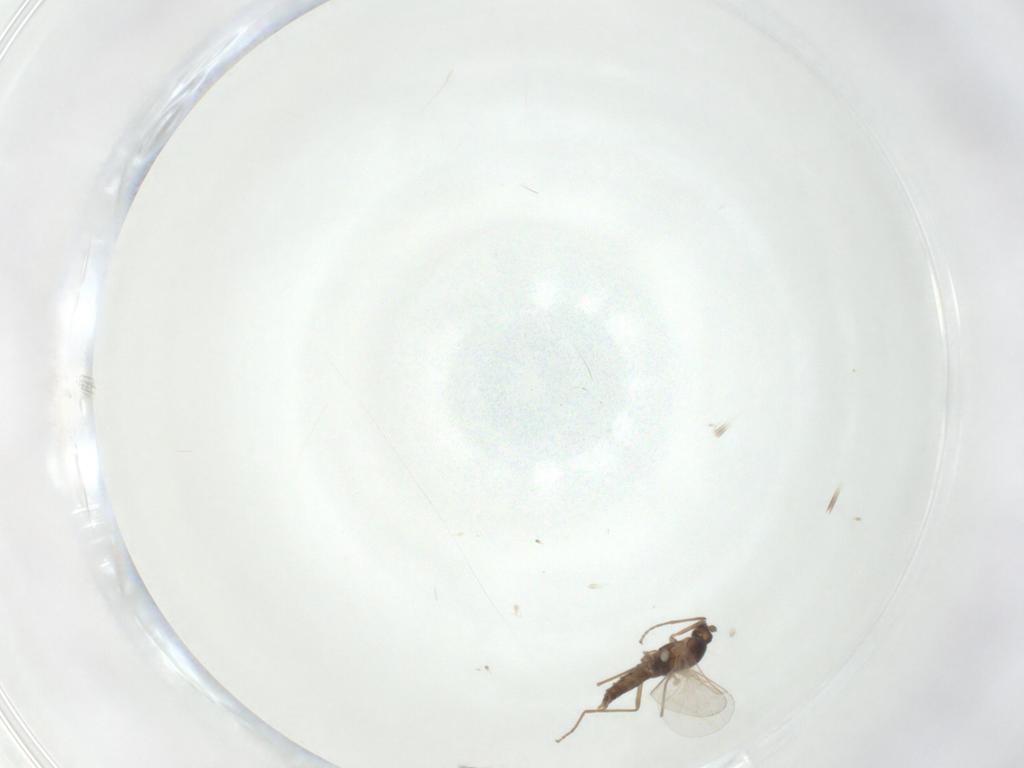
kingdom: Animalia
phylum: Arthropoda
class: Insecta
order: Diptera
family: Cecidomyiidae
